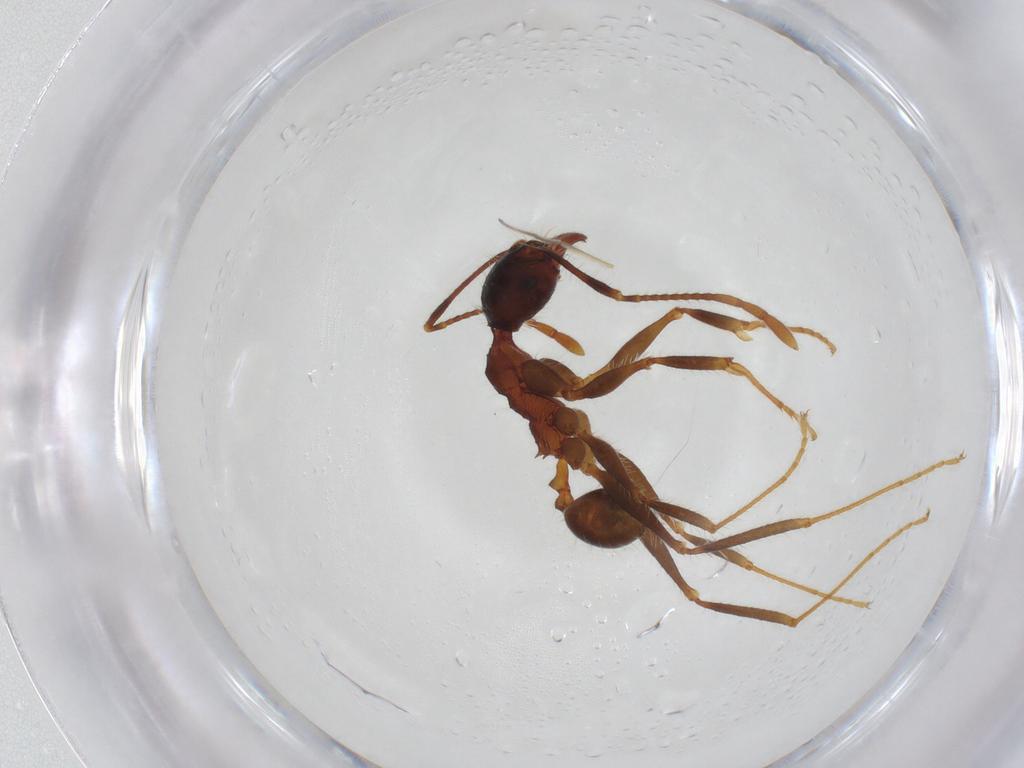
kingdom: Animalia
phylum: Arthropoda
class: Insecta
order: Hymenoptera
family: Formicidae
